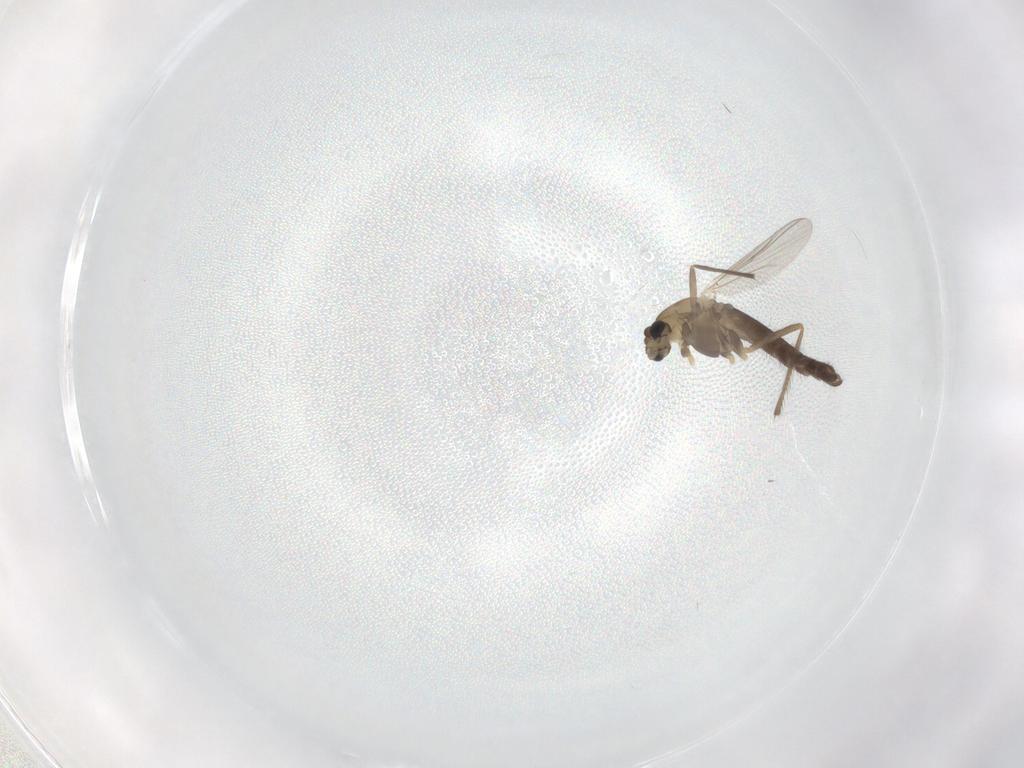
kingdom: Animalia
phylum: Arthropoda
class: Insecta
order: Diptera
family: Chironomidae
